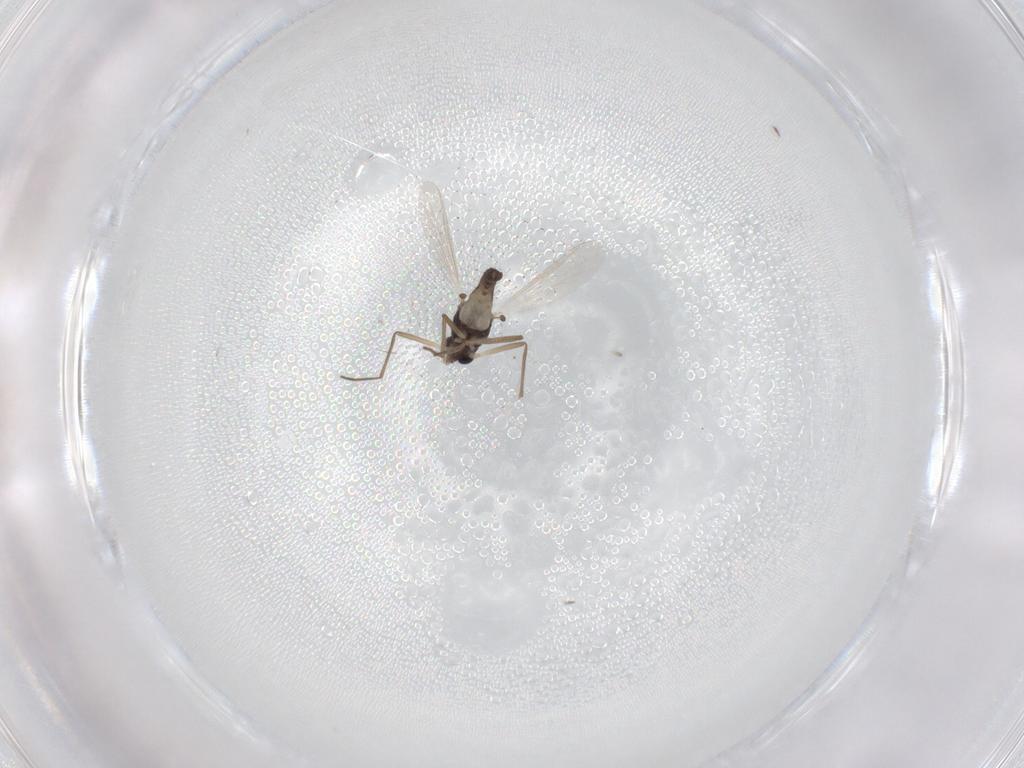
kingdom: Animalia
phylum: Arthropoda
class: Insecta
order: Diptera
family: Chironomidae
